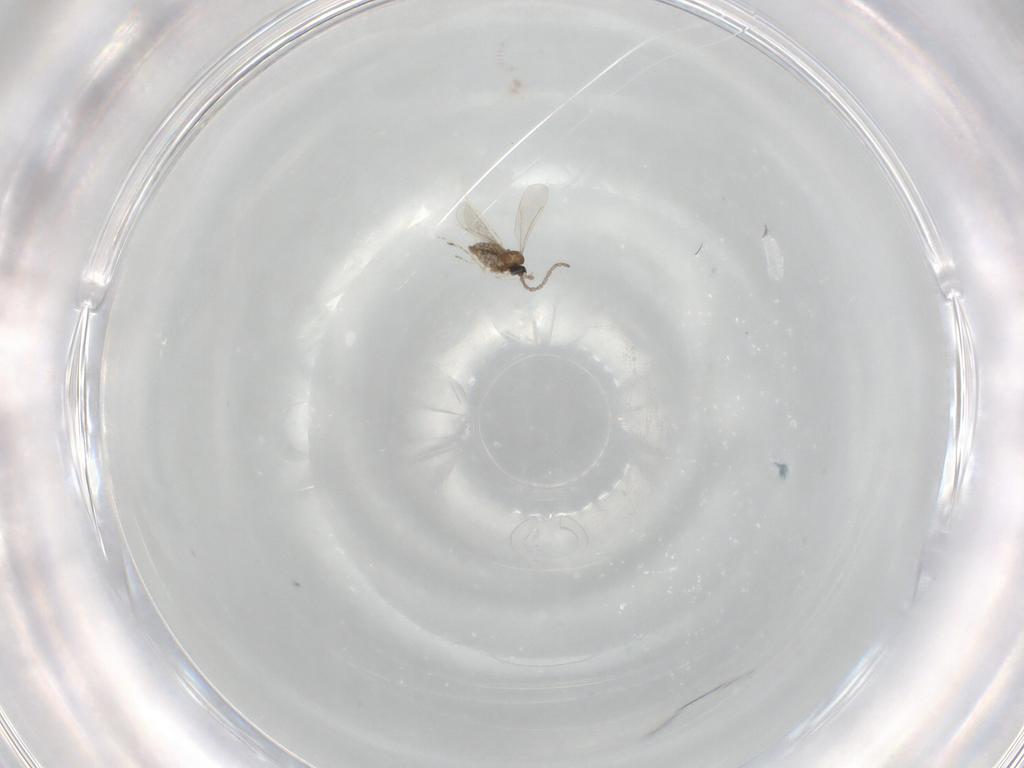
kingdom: Animalia
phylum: Arthropoda
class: Insecta
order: Diptera
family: Cecidomyiidae
